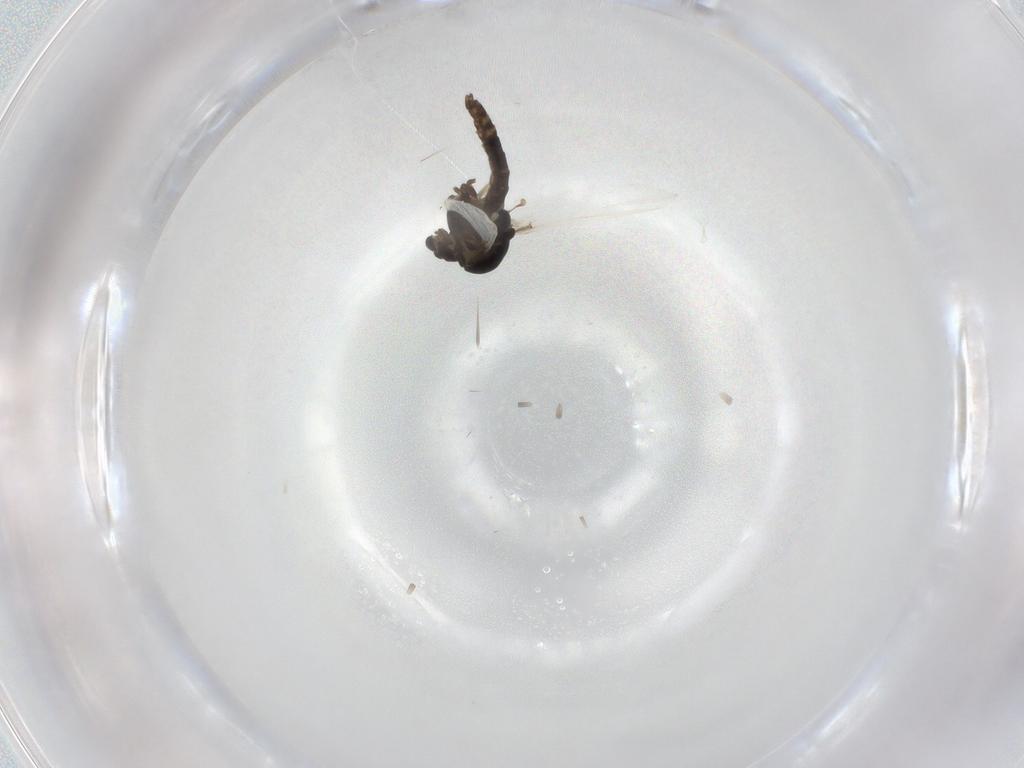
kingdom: Animalia
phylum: Arthropoda
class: Insecta
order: Diptera
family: Cecidomyiidae
